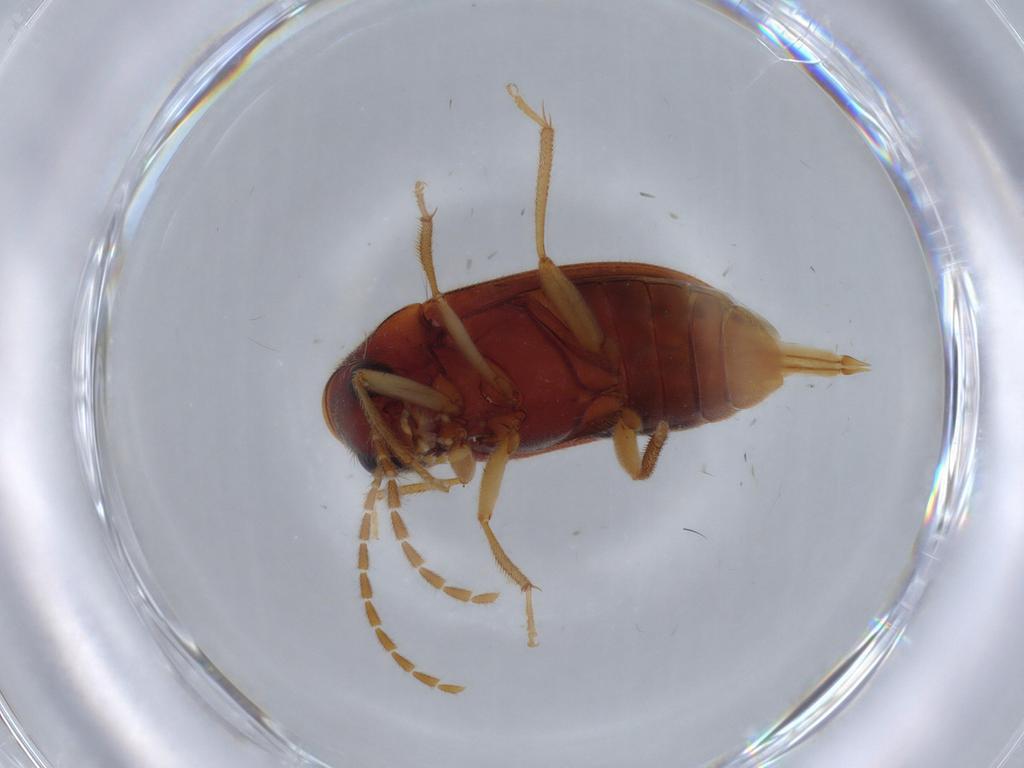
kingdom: Animalia
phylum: Arthropoda
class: Insecta
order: Coleoptera
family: Ptilodactylidae
